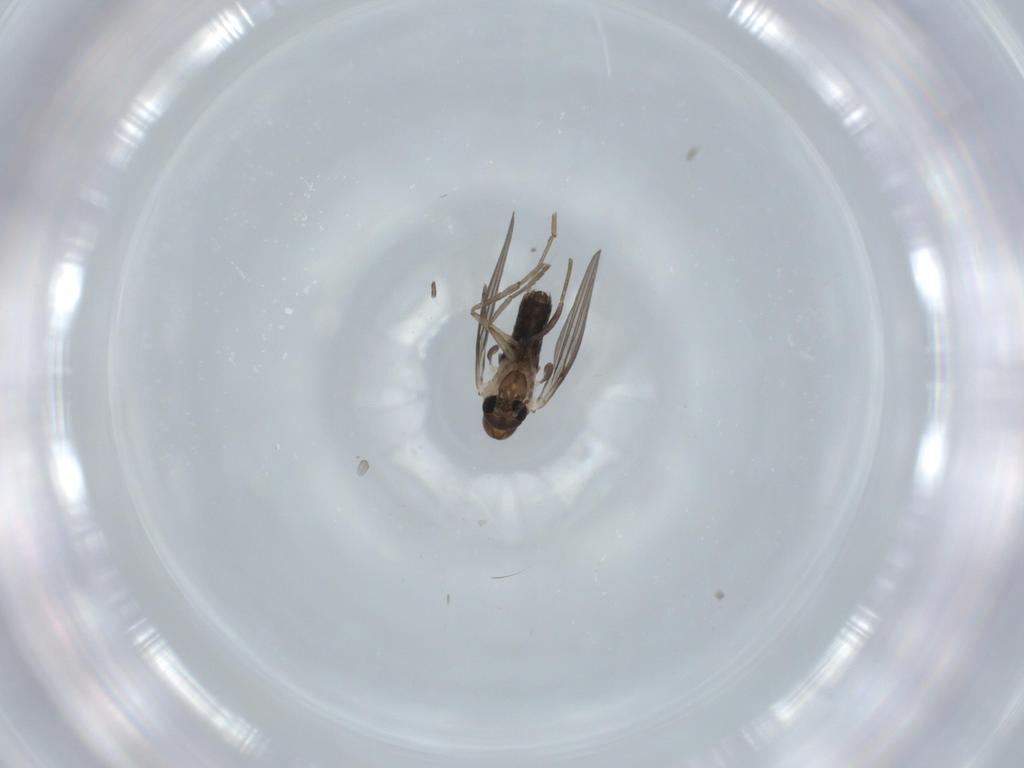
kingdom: Animalia
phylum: Arthropoda
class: Insecta
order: Diptera
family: Psychodidae
